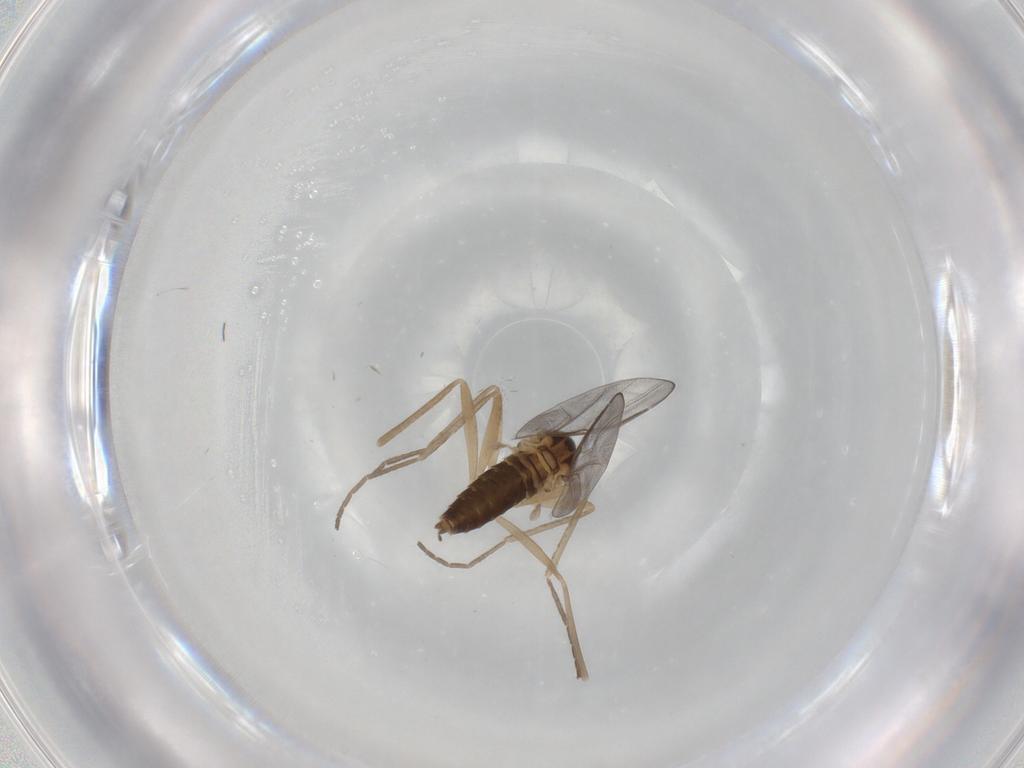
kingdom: Animalia
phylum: Arthropoda
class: Insecta
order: Diptera
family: Cecidomyiidae
